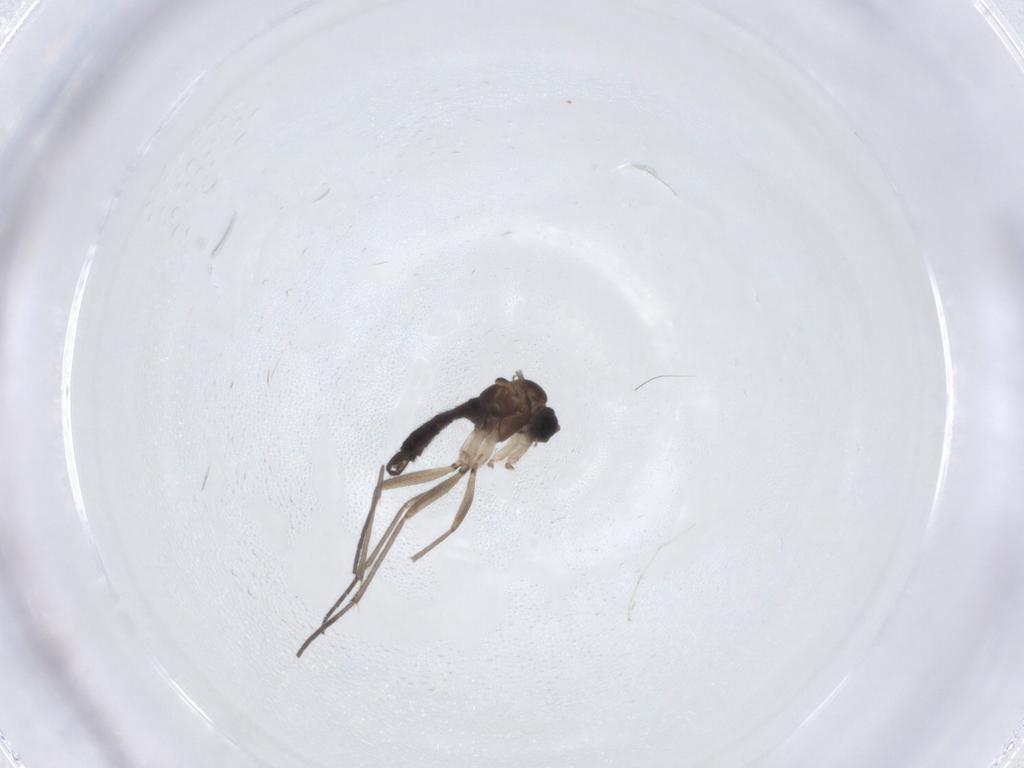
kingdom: Animalia
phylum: Arthropoda
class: Insecta
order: Diptera
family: Cecidomyiidae
